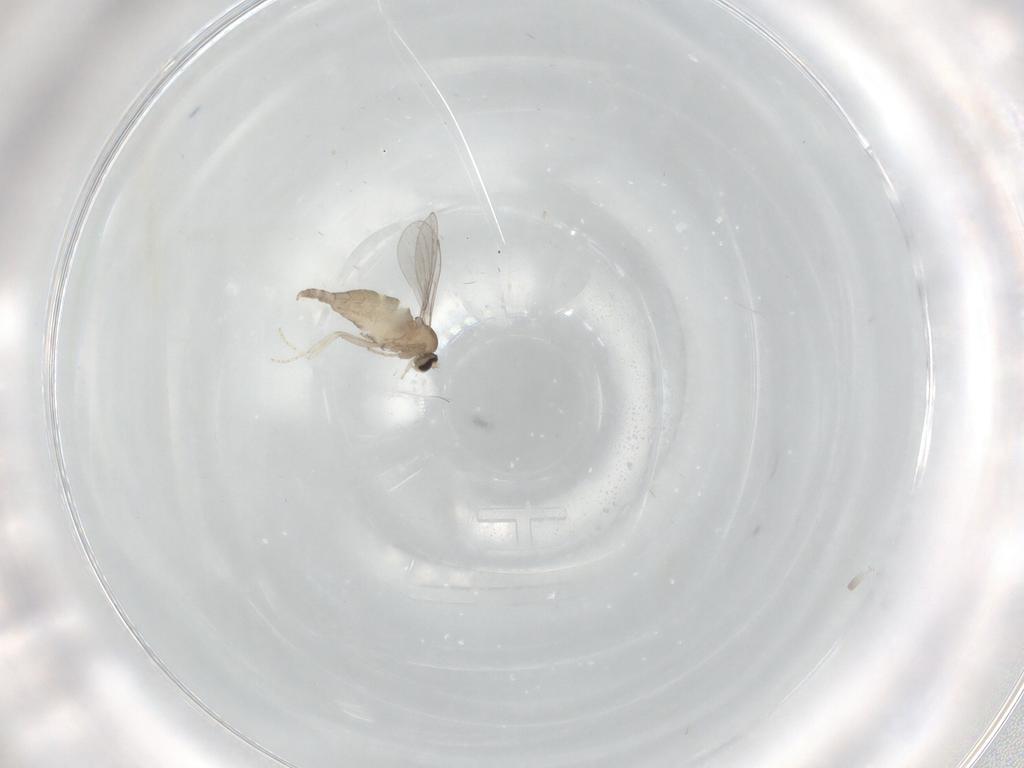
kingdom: Animalia
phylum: Arthropoda
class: Insecta
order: Diptera
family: Cecidomyiidae
